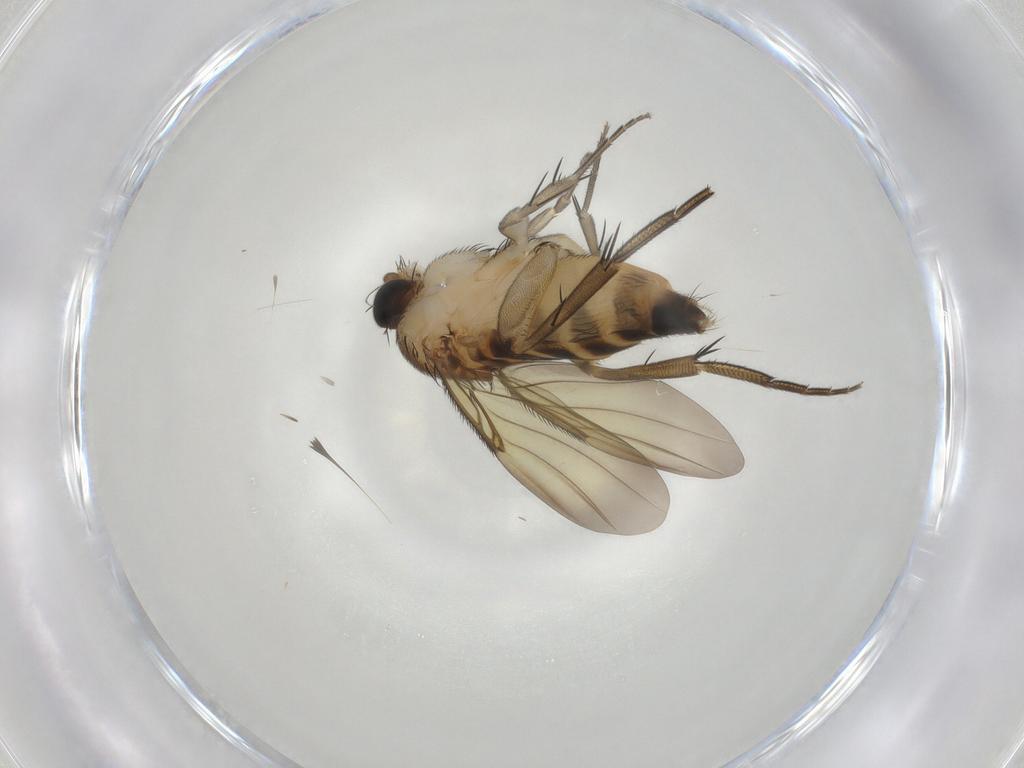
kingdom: Animalia
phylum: Arthropoda
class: Insecta
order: Diptera
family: Phoridae
